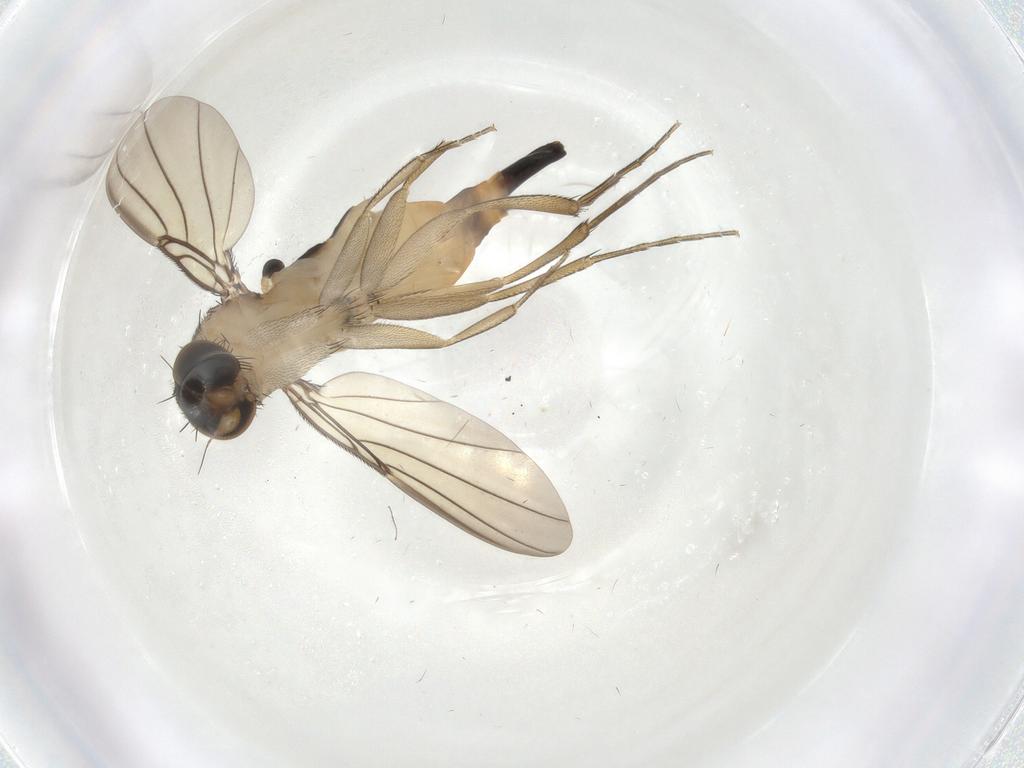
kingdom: Animalia
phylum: Arthropoda
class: Insecta
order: Diptera
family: Phoridae
